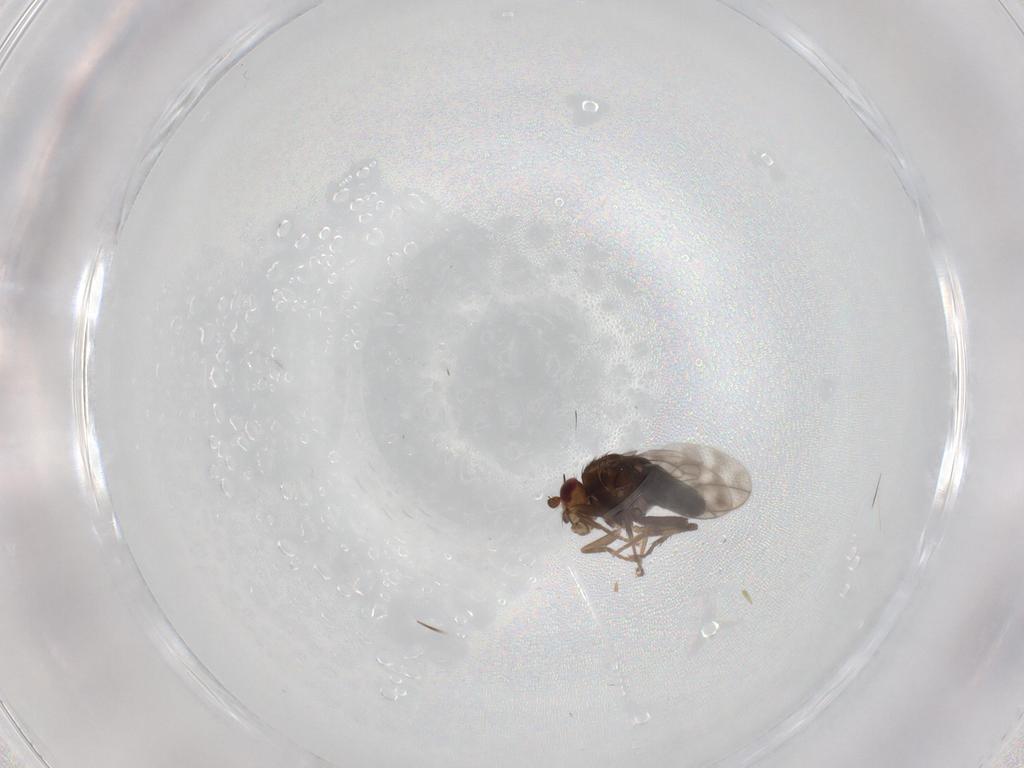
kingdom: Animalia
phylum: Arthropoda
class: Insecta
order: Diptera
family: Sphaeroceridae
